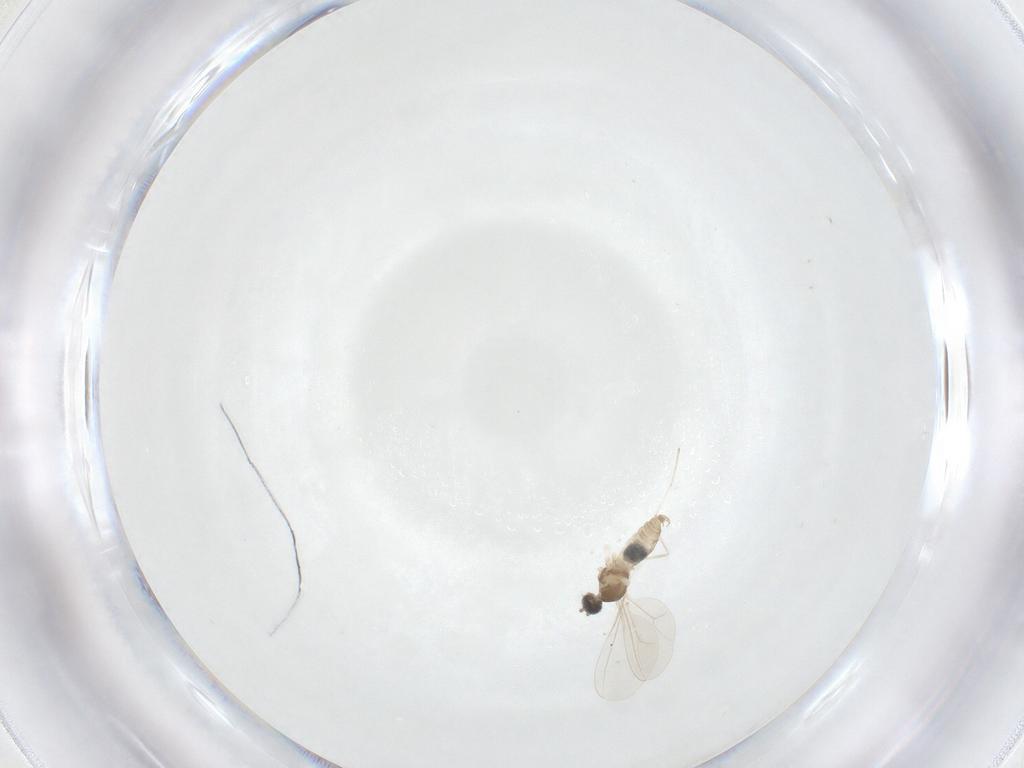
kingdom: Animalia
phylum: Arthropoda
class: Insecta
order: Diptera
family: Cecidomyiidae
